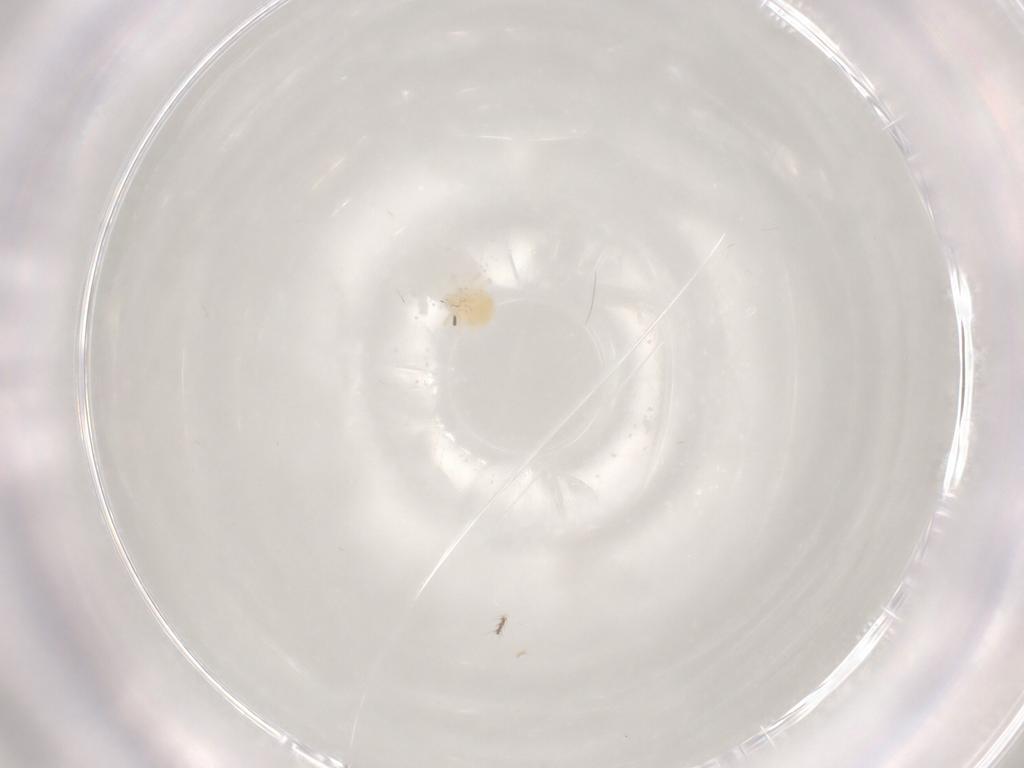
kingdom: Animalia
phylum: Arthropoda
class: Arachnida
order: Trombidiformes
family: Anystidae
